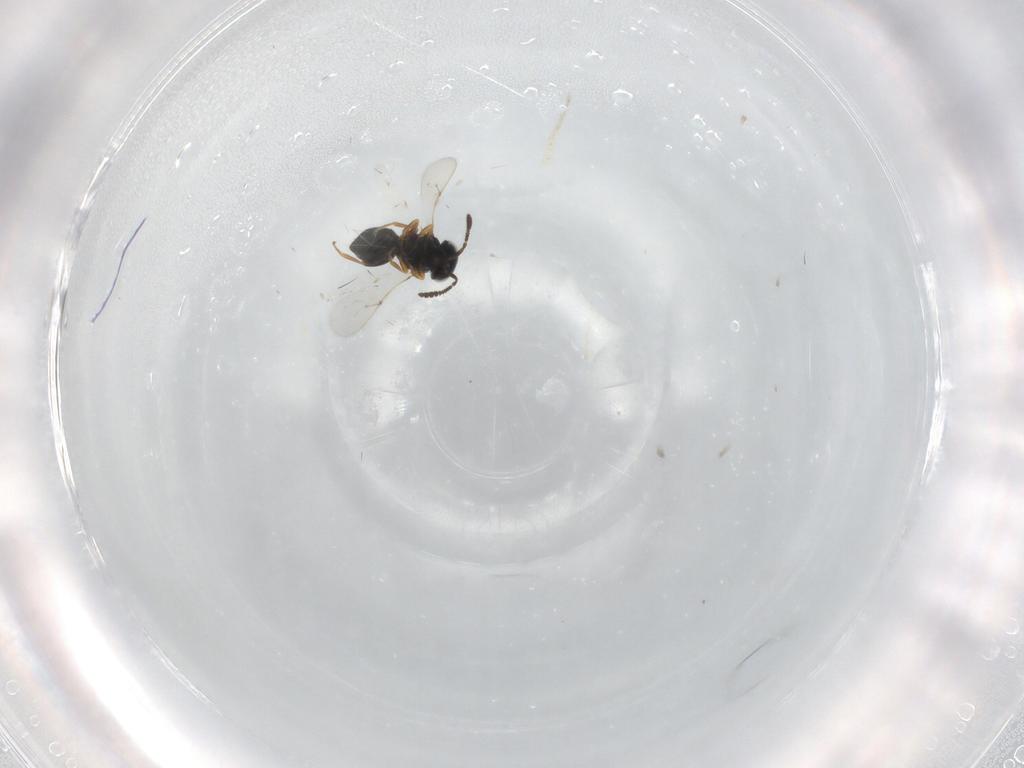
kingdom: Animalia
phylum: Arthropoda
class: Insecta
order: Hymenoptera
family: Scelionidae
